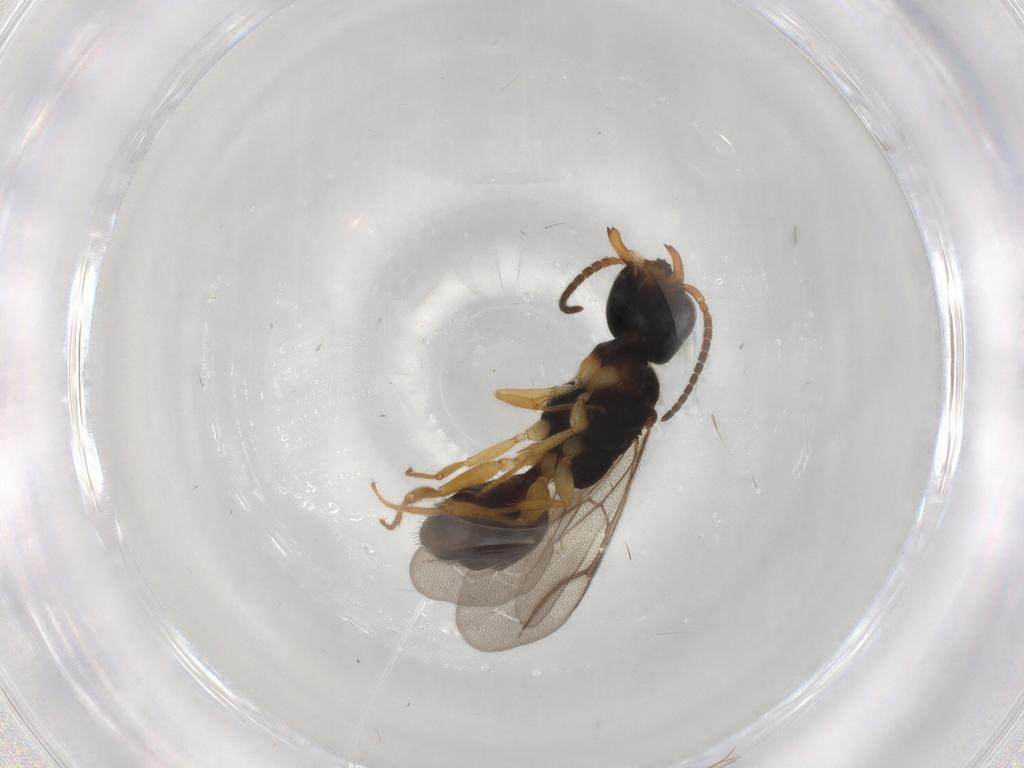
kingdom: Animalia
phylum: Arthropoda
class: Insecta
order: Hymenoptera
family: Bethylidae
